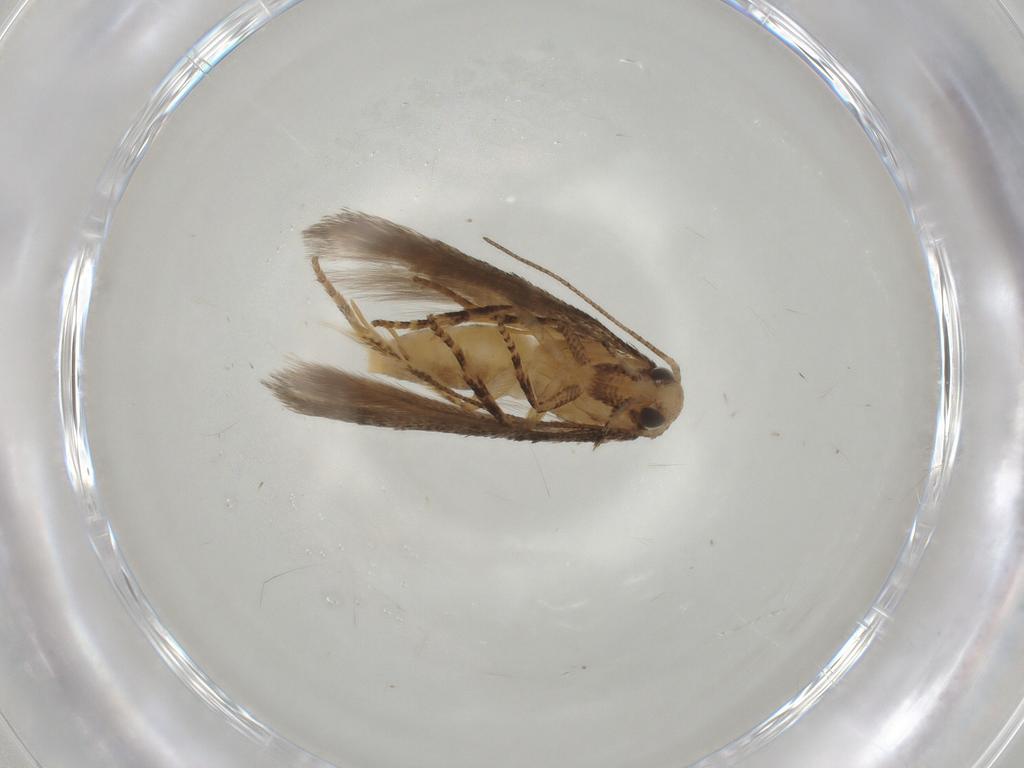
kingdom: Animalia
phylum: Arthropoda
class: Insecta
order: Lepidoptera
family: Gelechiidae
